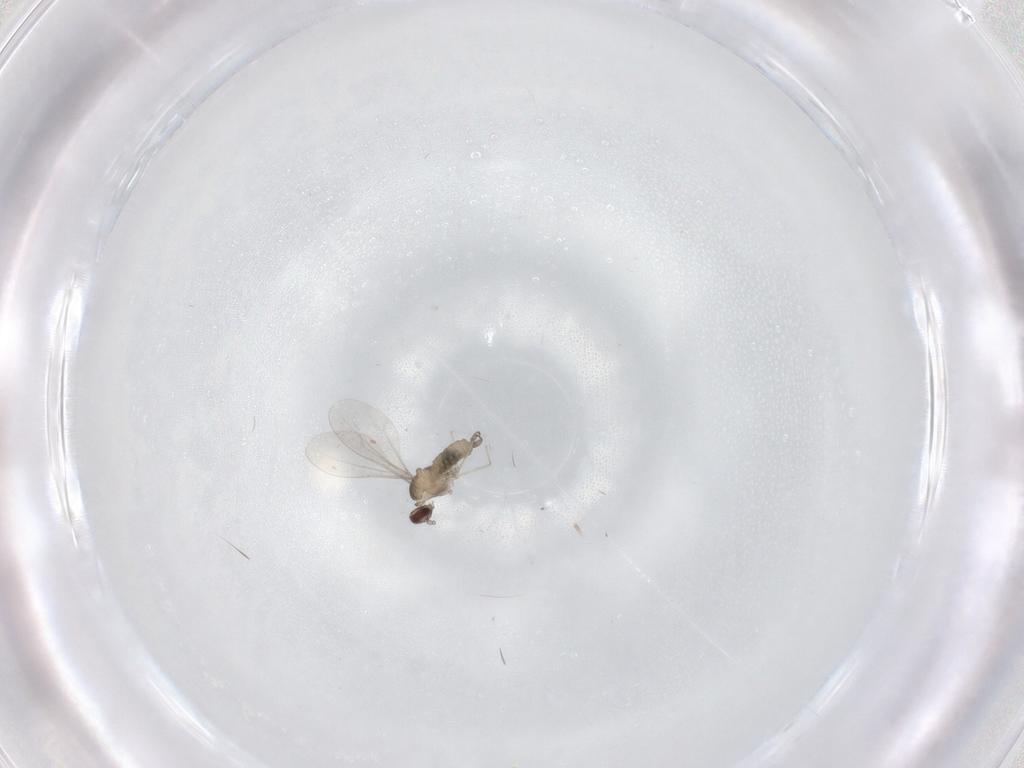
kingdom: Animalia
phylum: Arthropoda
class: Insecta
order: Diptera
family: Cecidomyiidae
